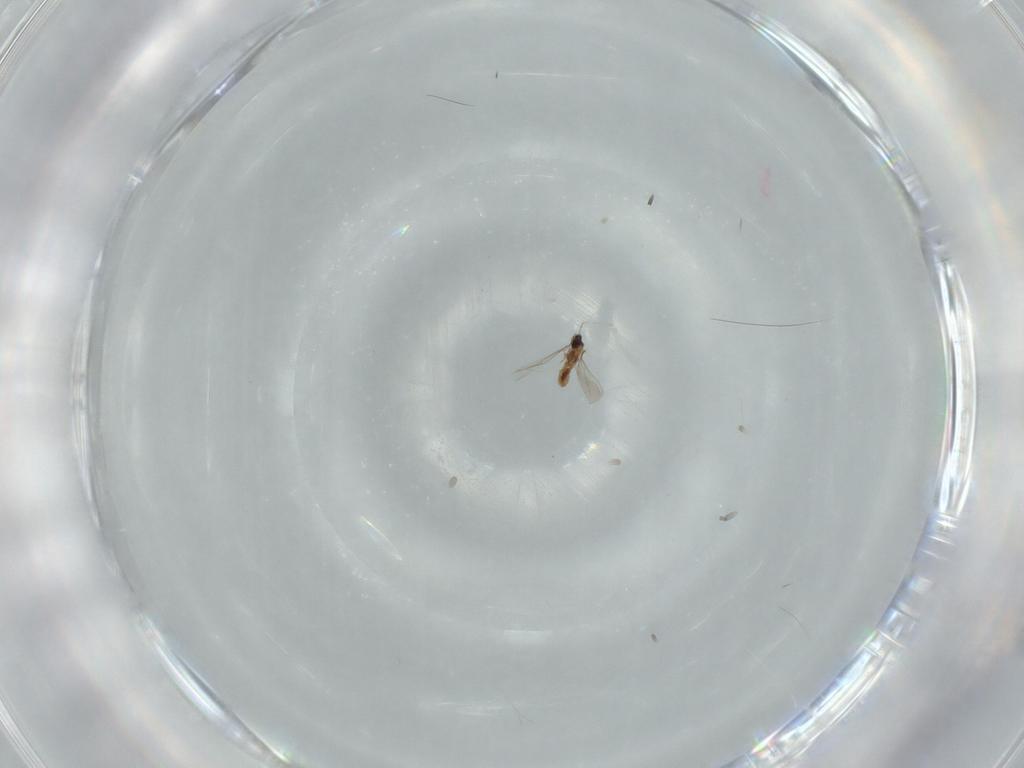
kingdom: Animalia
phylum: Arthropoda
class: Insecta
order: Diptera
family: Cecidomyiidae
